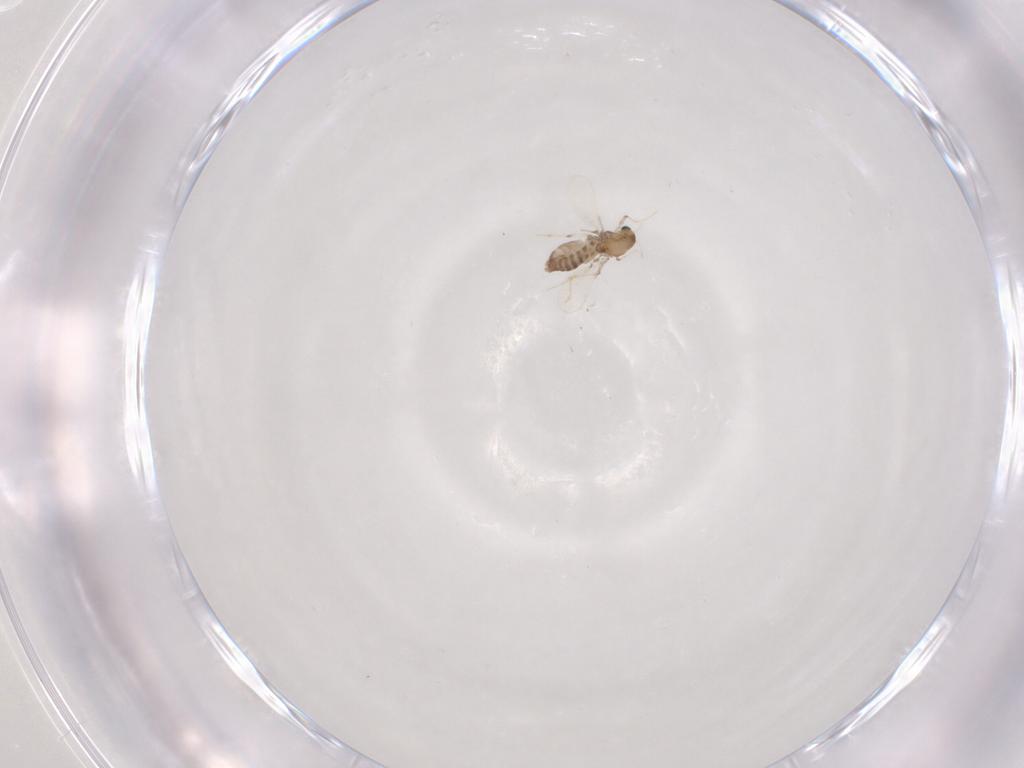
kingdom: Animalia
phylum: Arthropoda
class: Insecta
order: Diptera
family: Chironomidae
